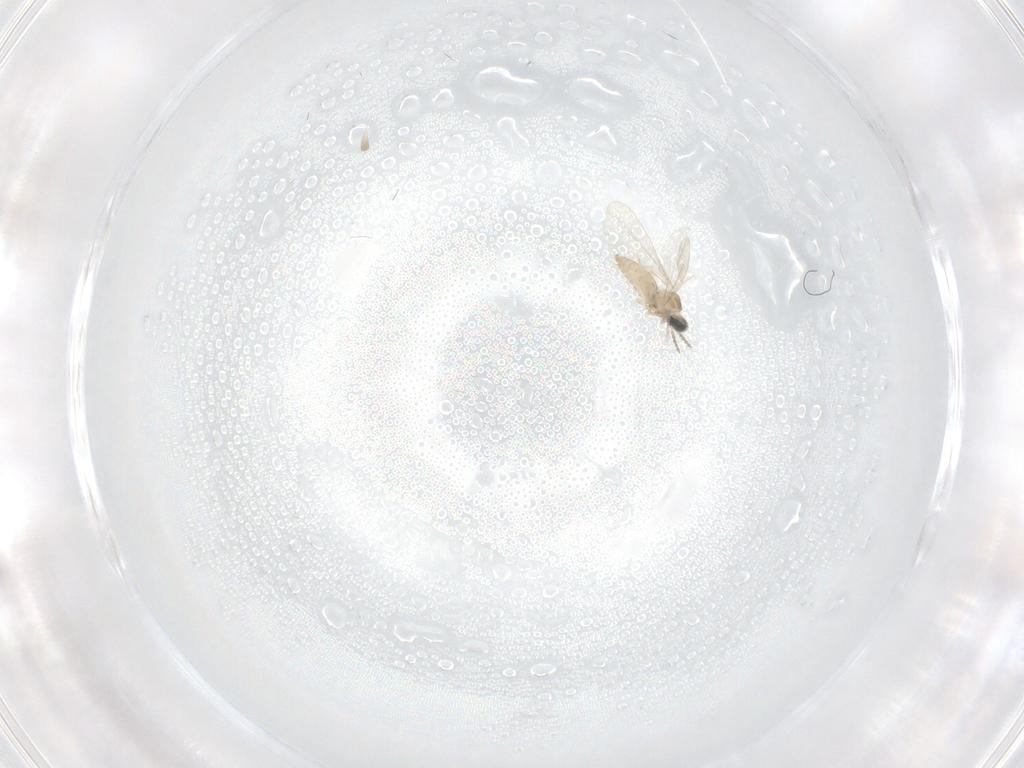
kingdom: Animalia
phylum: Arthropoda
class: Insecta
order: Diptera
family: Cecidomyiidae
